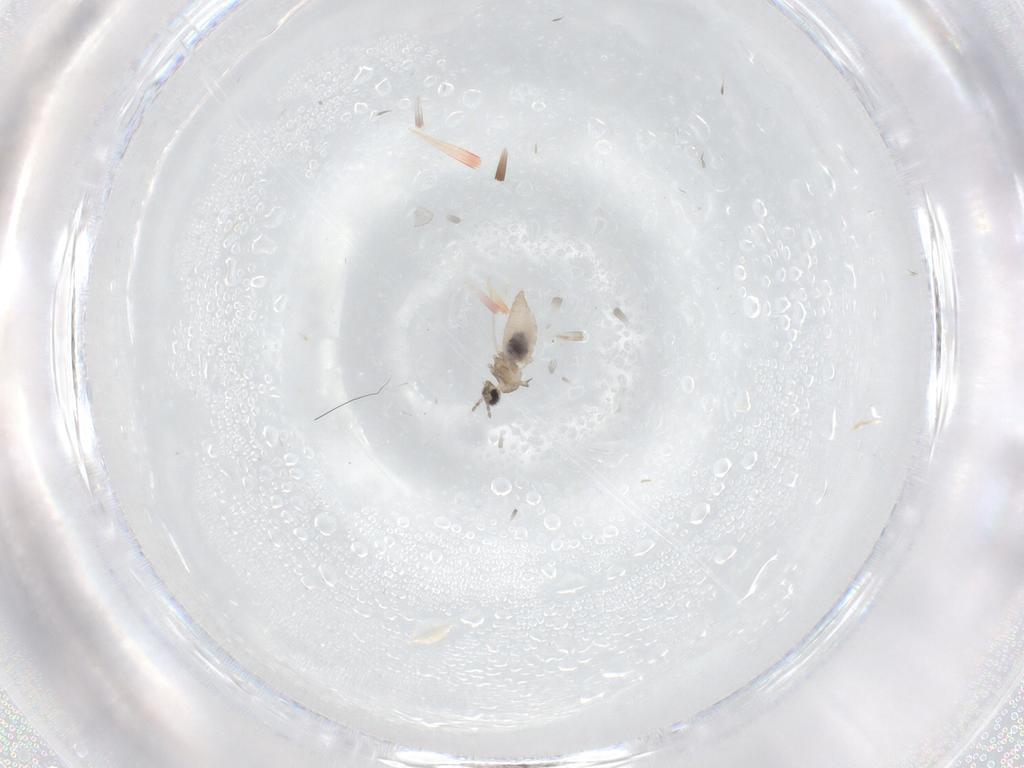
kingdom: Animalia
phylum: Arthropoda
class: Insecta
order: Diptera
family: Cecidomyiidae
